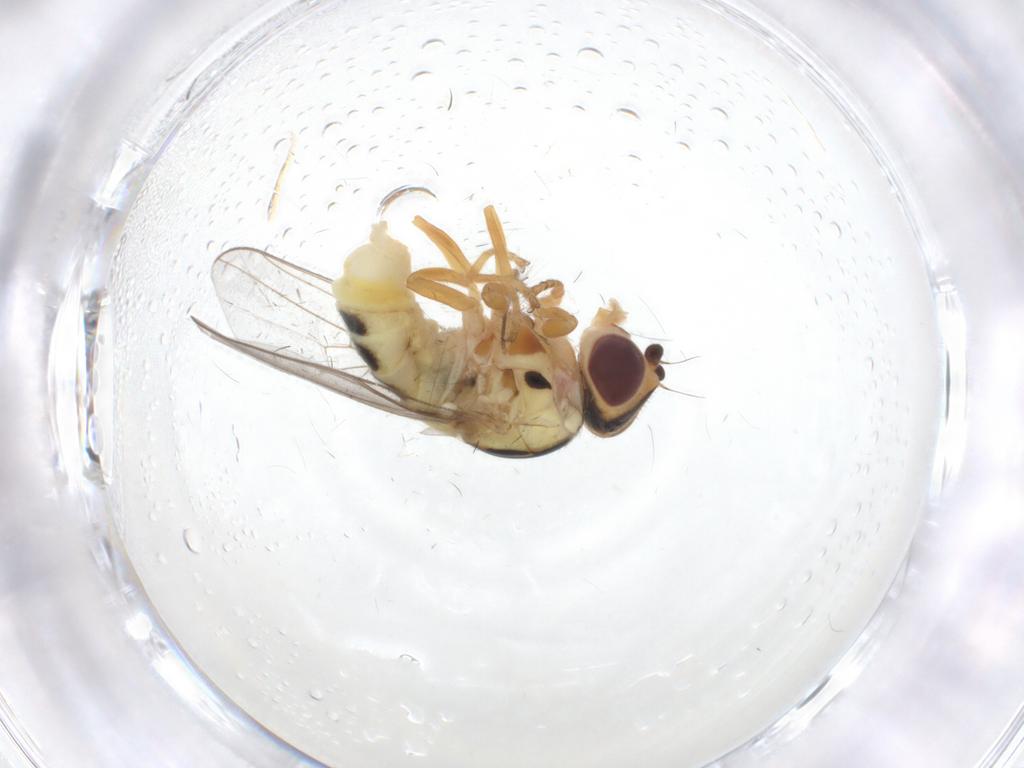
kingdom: Animalia
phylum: Arthropoda
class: Insecta
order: Diptera
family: Chloropidae
